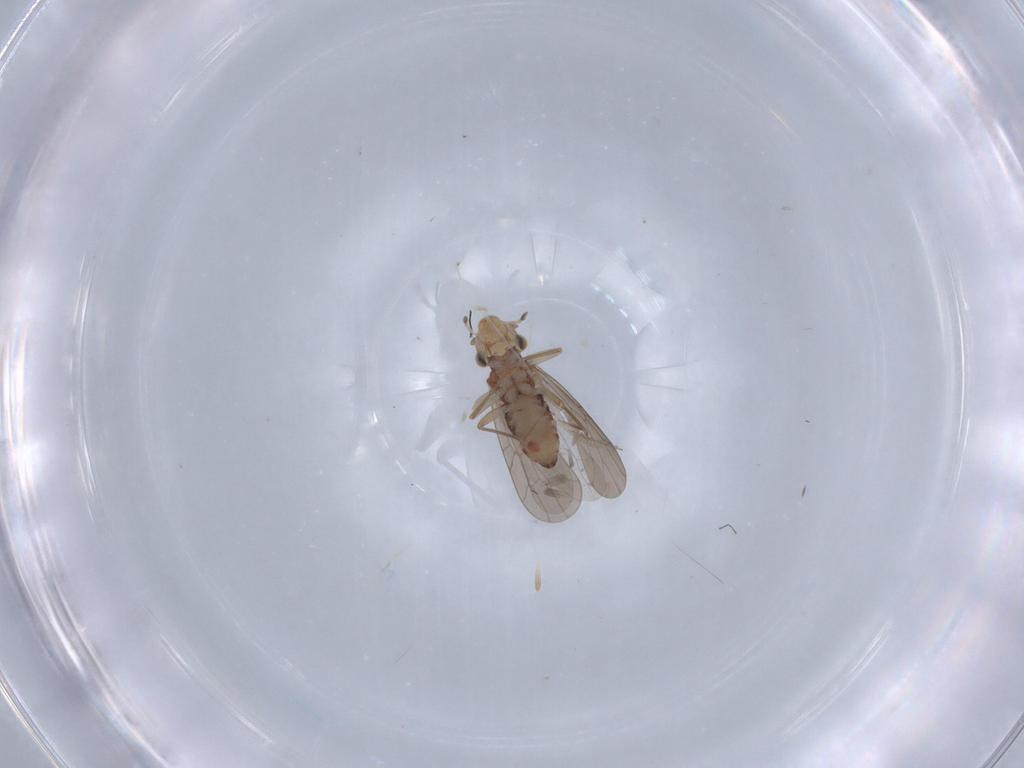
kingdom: Animalia
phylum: Arthropoda
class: Insecta
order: Psocodea
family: Lepidopsocidae
